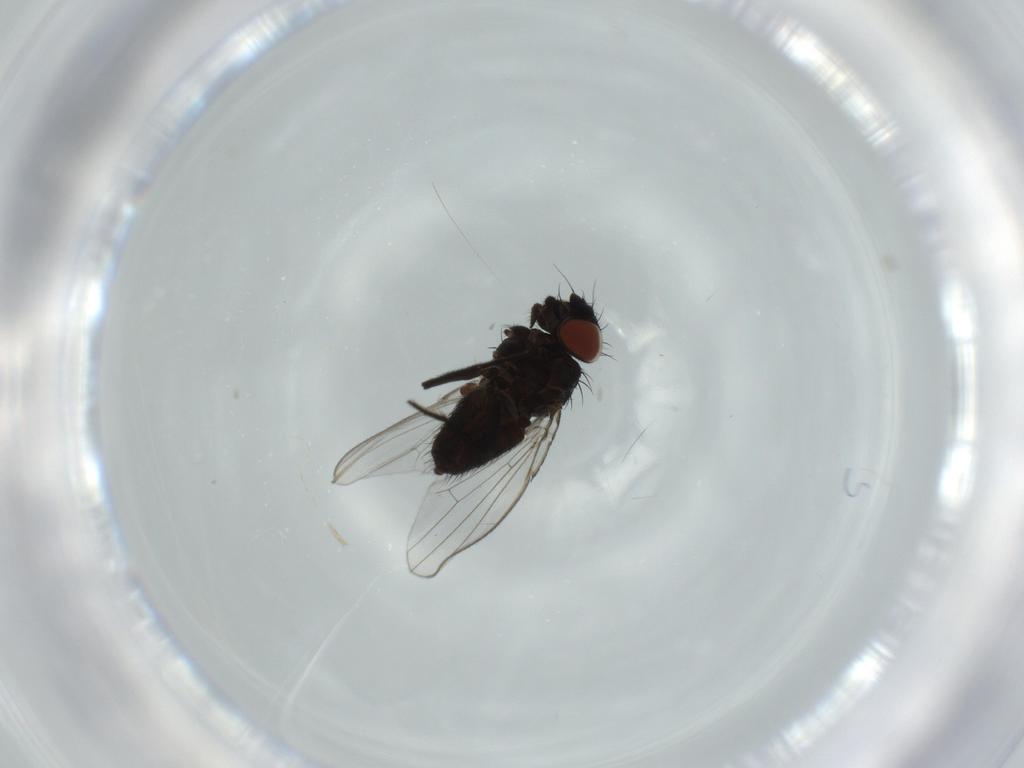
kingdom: Animalia
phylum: Arthropoda
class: Insecta
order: Diptera
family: Milichiidae
